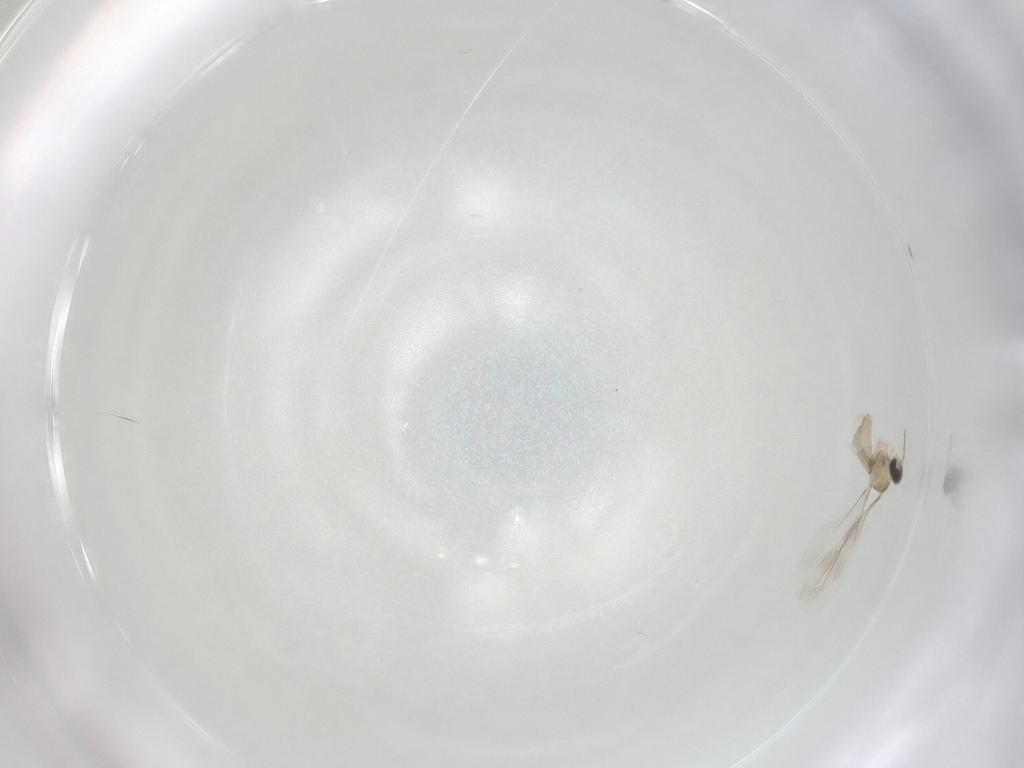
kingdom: Animalia
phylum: Arthropoda
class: Insecta
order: Diptera
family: Cecidomyiidae
